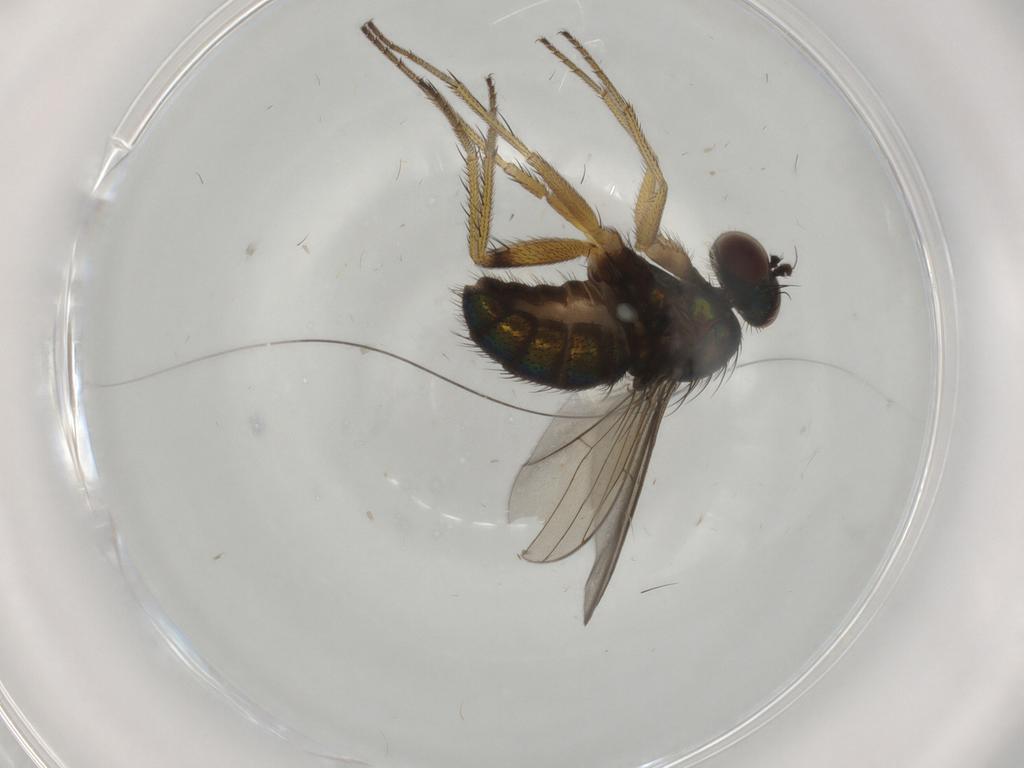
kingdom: Animalia
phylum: Arthropoda
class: Insecta
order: Diptera
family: Dolichopodidae
